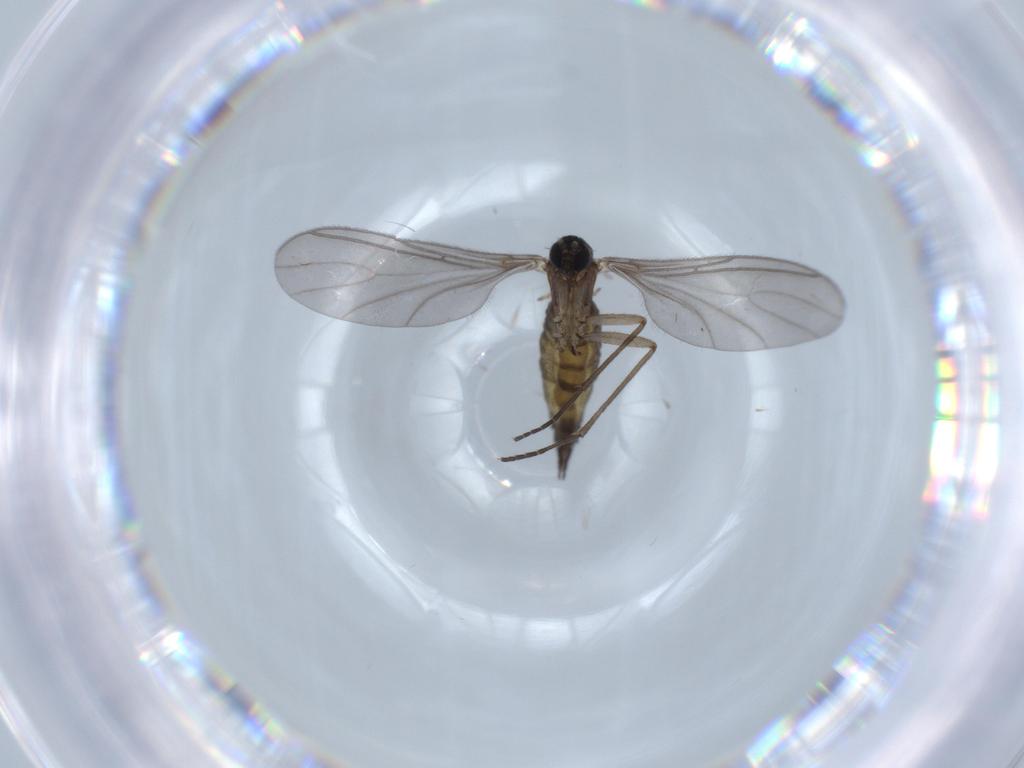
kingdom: Animalia
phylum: Arthropoda
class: Insecta
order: Diptera
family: Sciaridae
